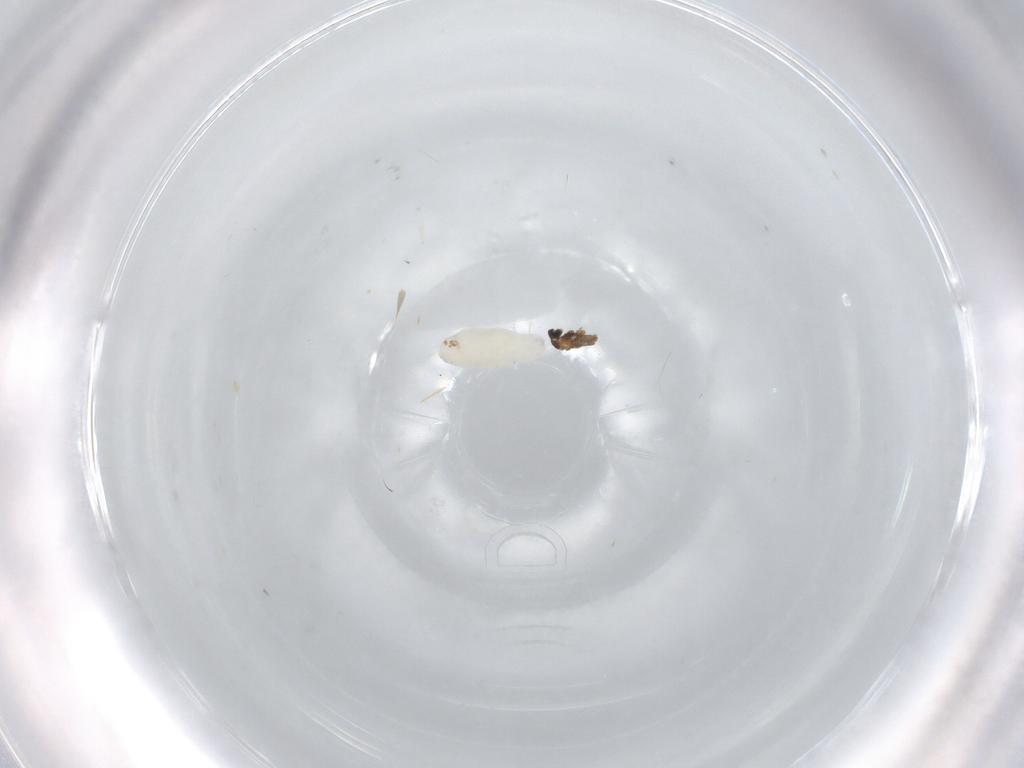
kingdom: Animalia
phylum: Arthropoda
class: Insecta
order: Diptera
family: Cecidomyiidae
